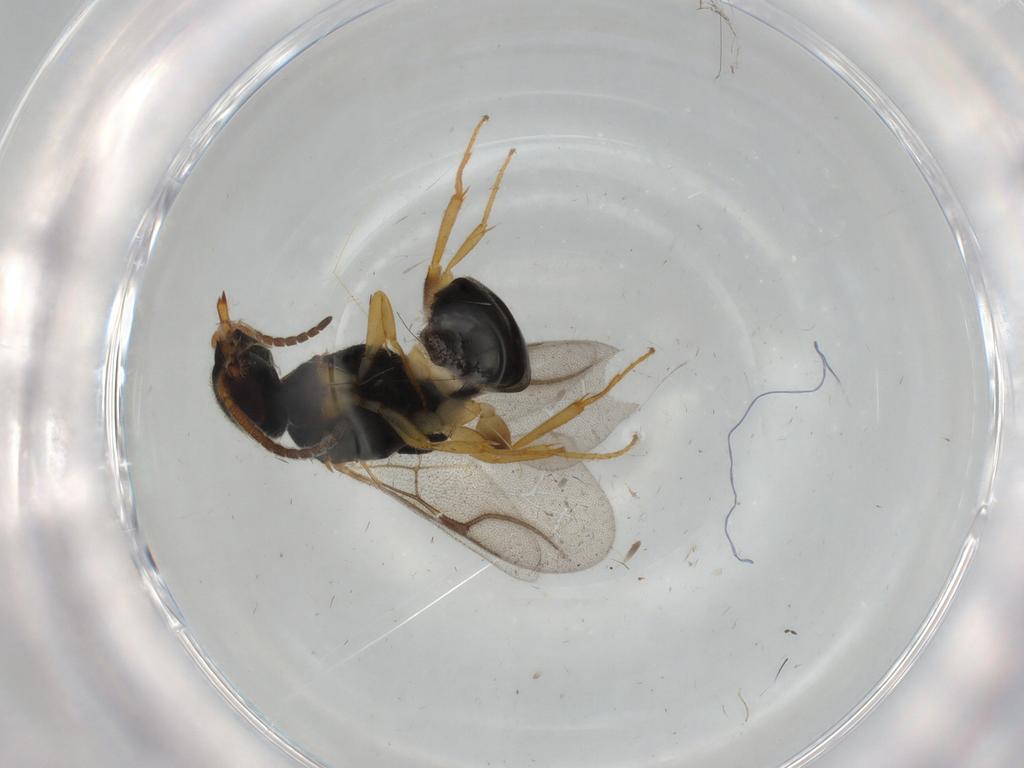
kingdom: Animalia
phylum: Arthropoda
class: Insecta
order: Hymenoptera
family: Bethylidae
